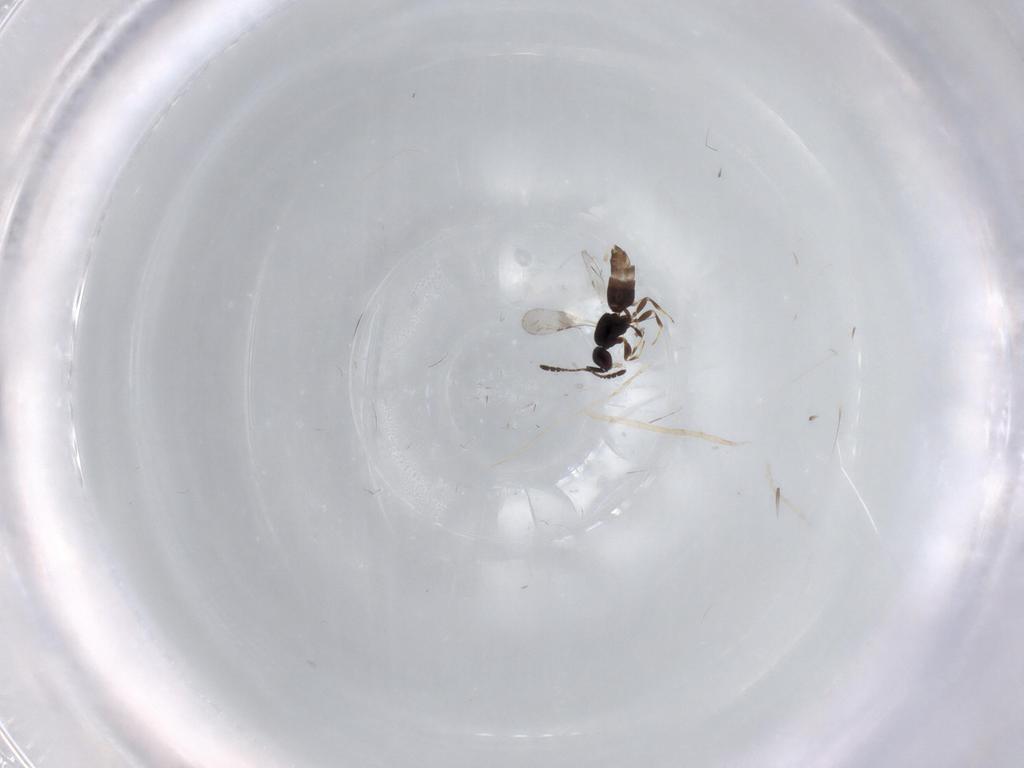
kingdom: Animalia
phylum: Arthropoda
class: Insecta
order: Hymenoptera
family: Ceraphronidae
